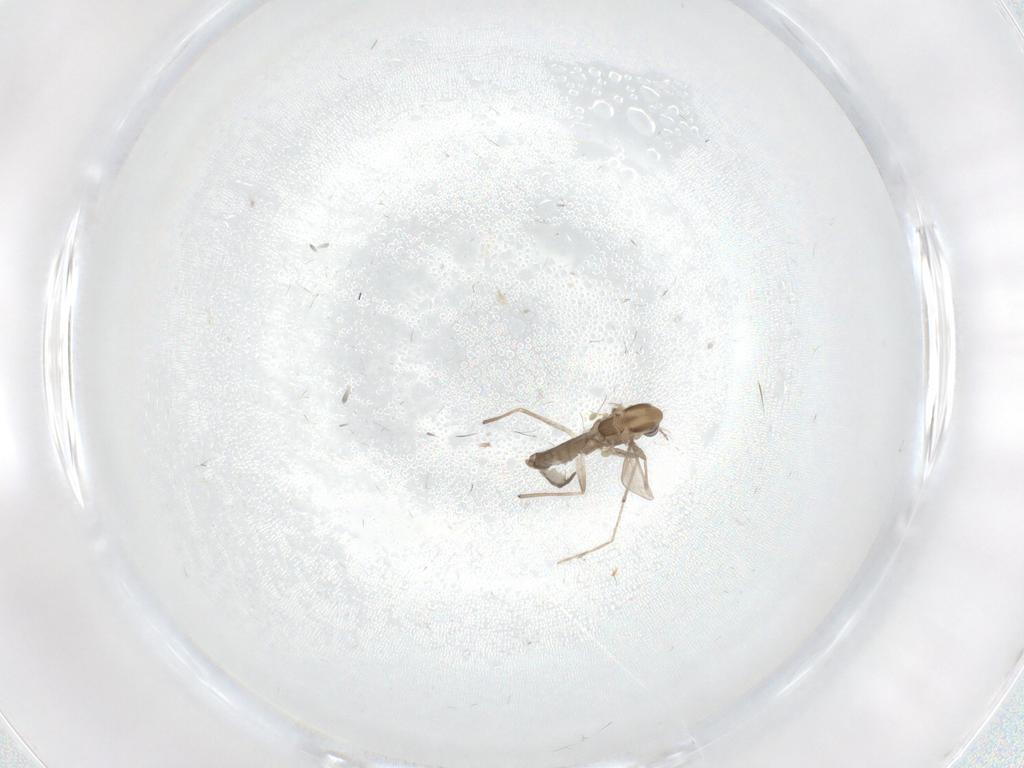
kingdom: Animalia
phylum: Arthropoda
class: Insecta
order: Diptera
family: Chironomidae
